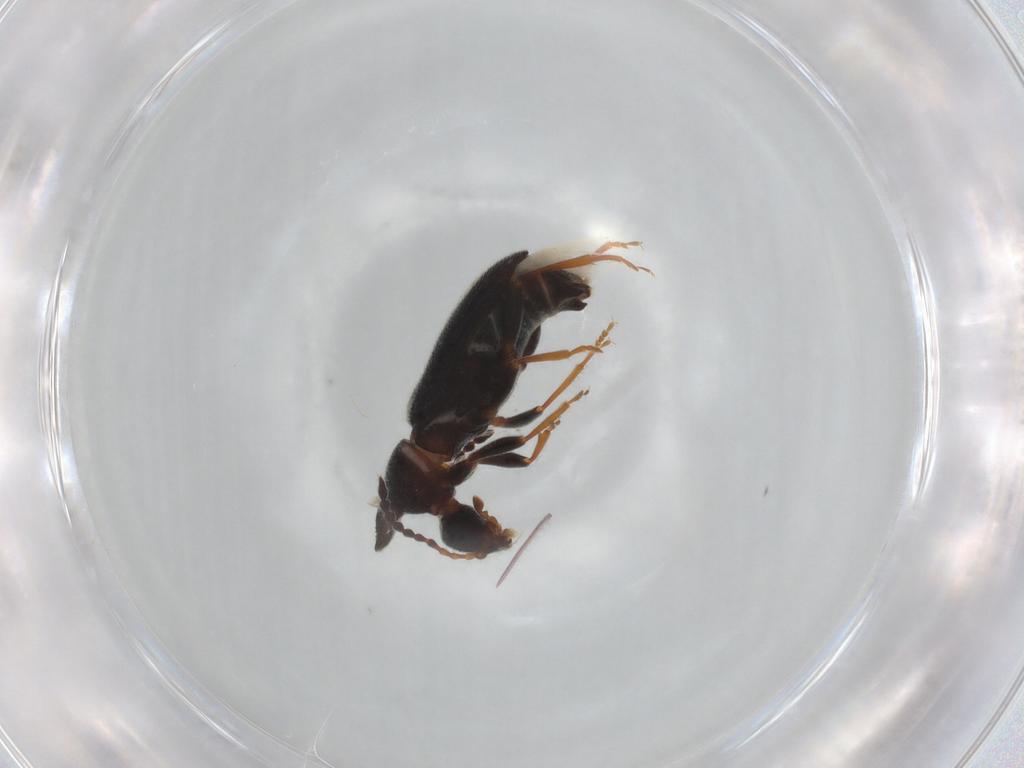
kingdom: Animalia
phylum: Arthropoda
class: Insecta
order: Coleoptera
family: Anthicidae
